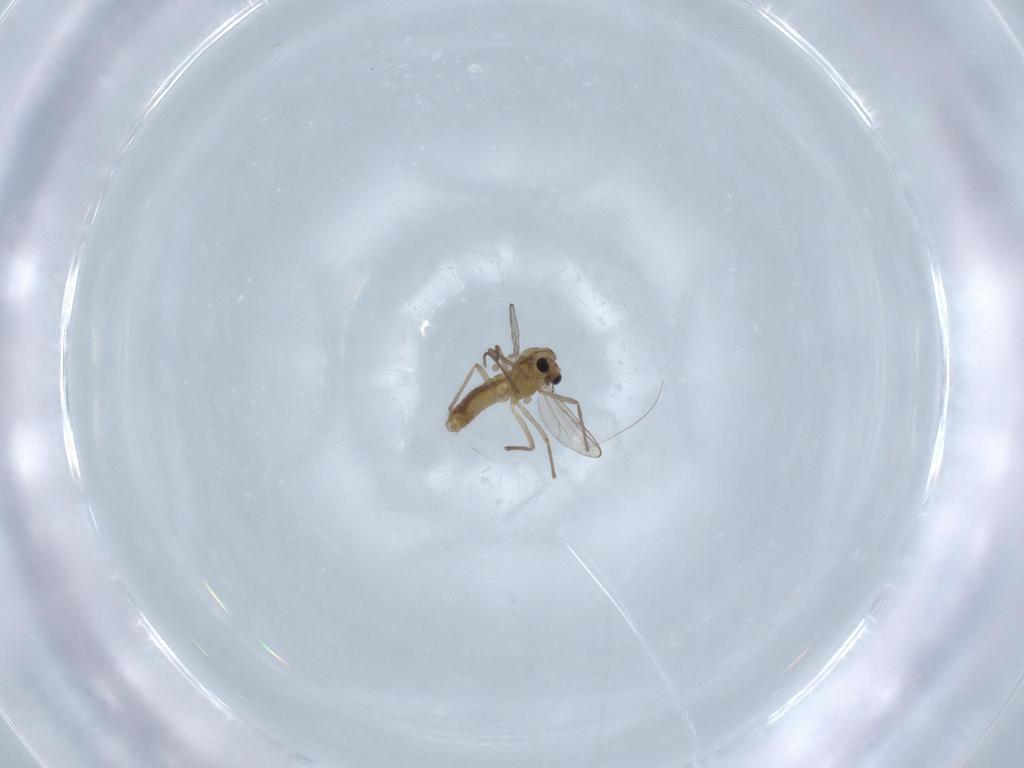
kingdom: Animalia
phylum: Arthropoda
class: Insecta
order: Diptera
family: Chironomidae
